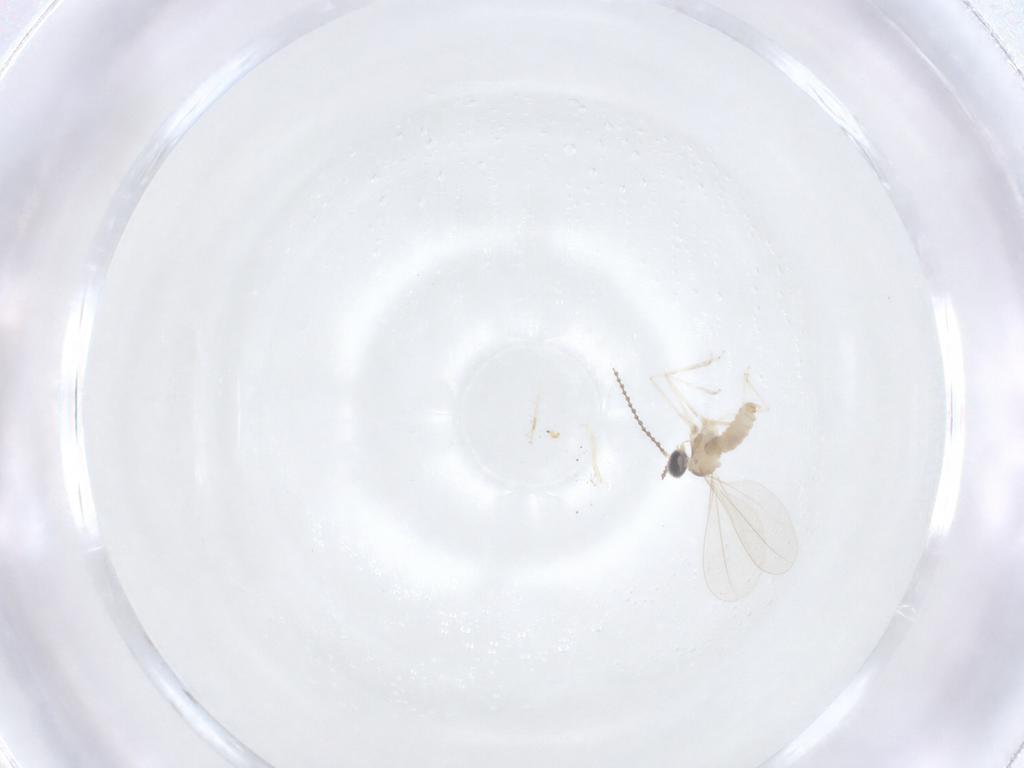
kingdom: Animalia
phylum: Arthropoda
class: Insecta
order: Diptera
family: Cecidomyiidae
